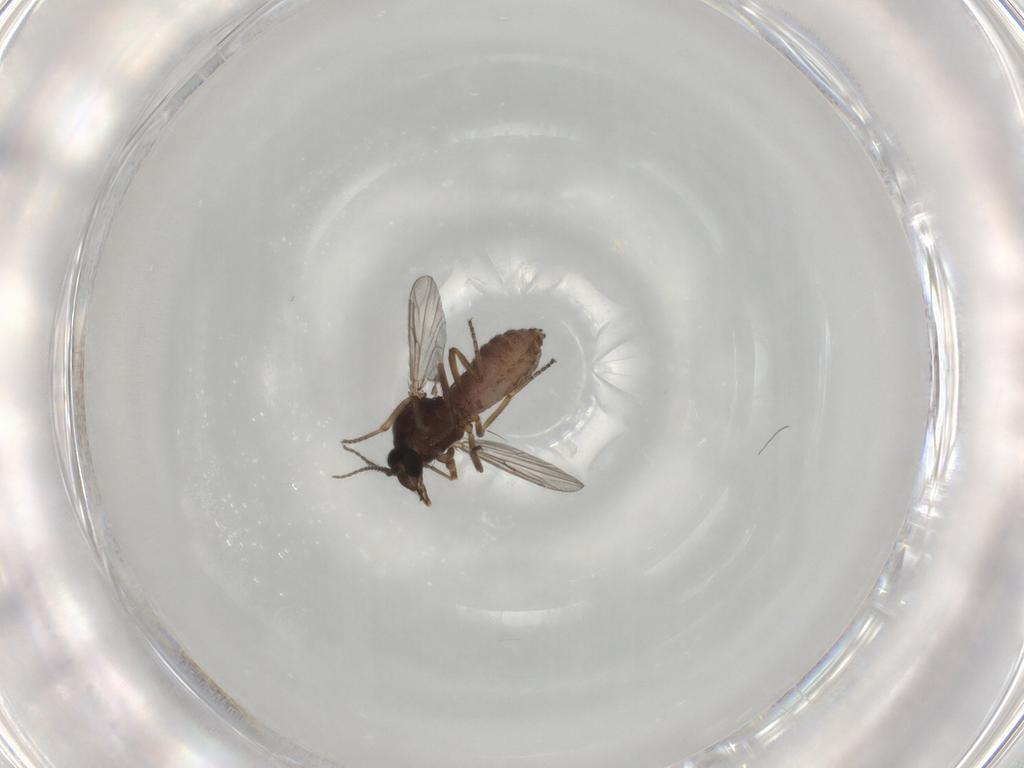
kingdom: Animalia
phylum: Arthropoda
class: Insecta
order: Diptera
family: Ceratopogonidae
